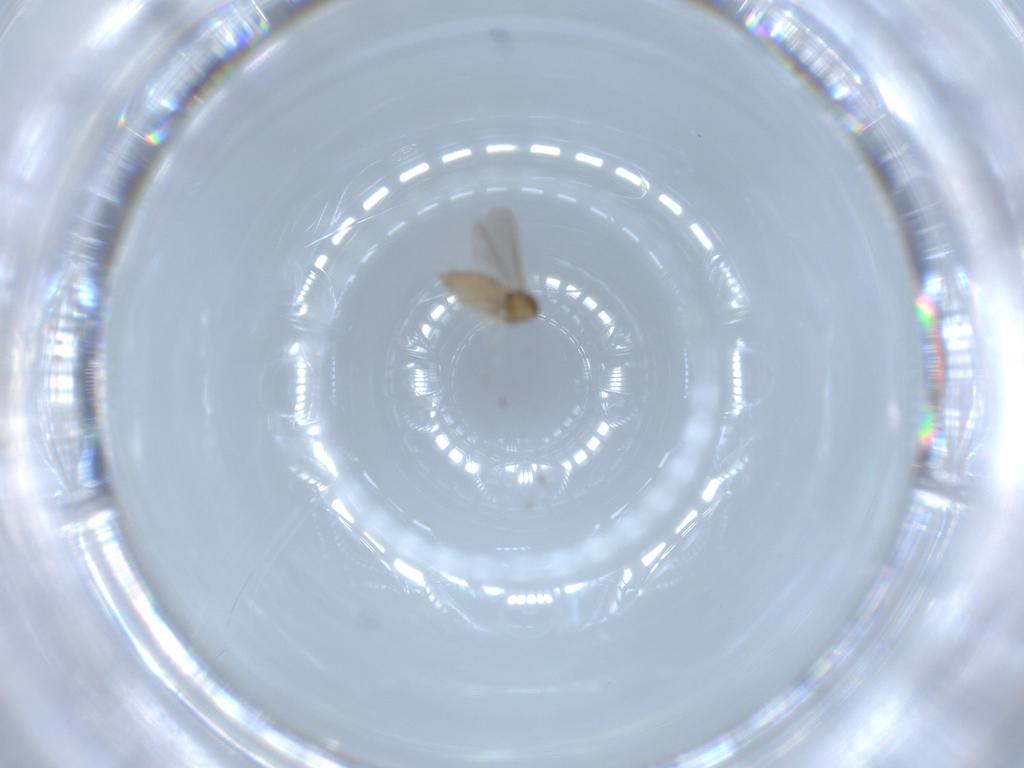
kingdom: Animalia
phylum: Arthropoda
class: Insecta
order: Diptera
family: Cecidomyiidae
